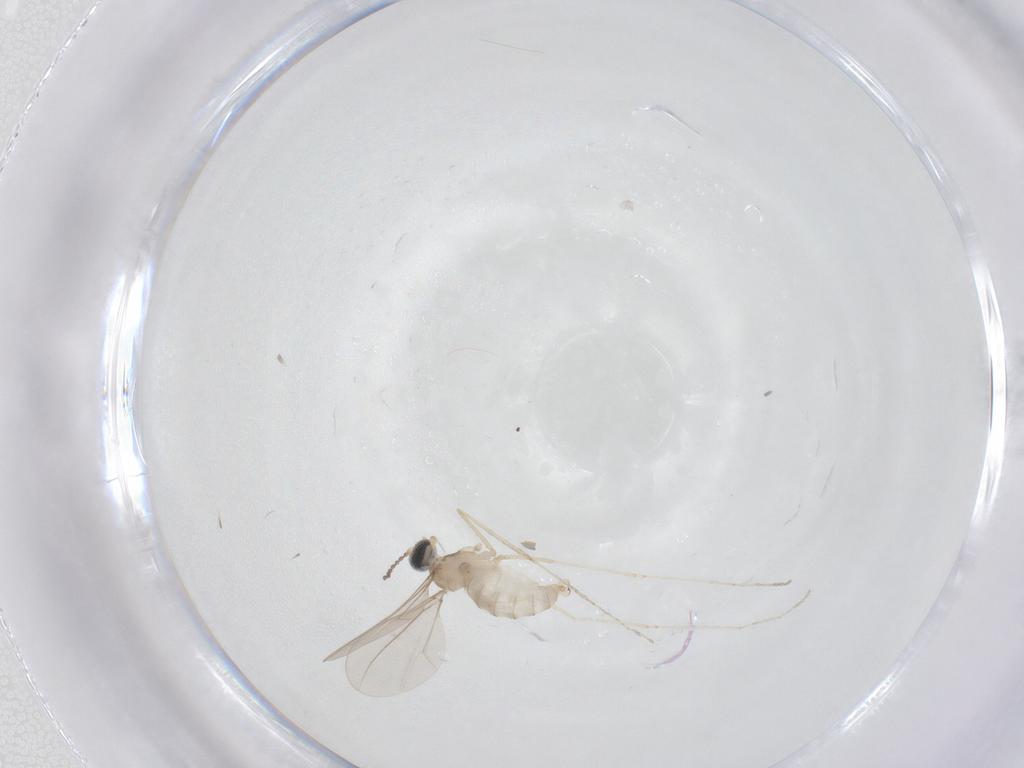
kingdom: Animalia
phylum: Arthropoda
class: Insecta
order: Diptera
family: Cecidomyiidae
